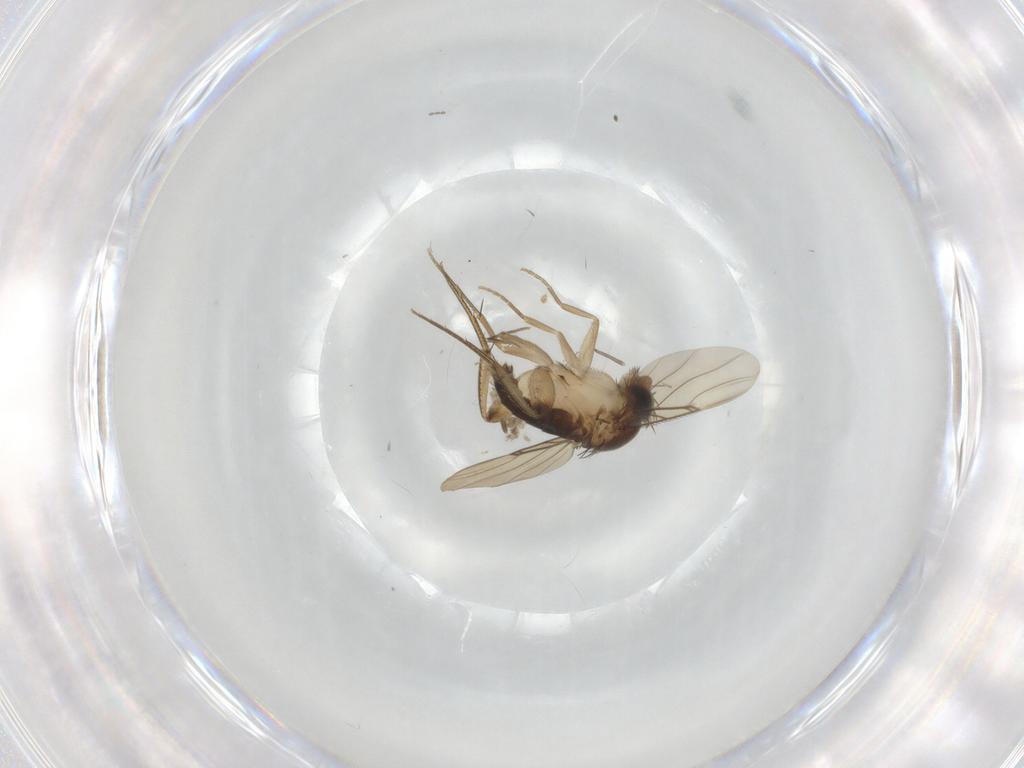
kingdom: Animalia
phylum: Arthropoda
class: Insecta
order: Diptera
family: Phoridae
